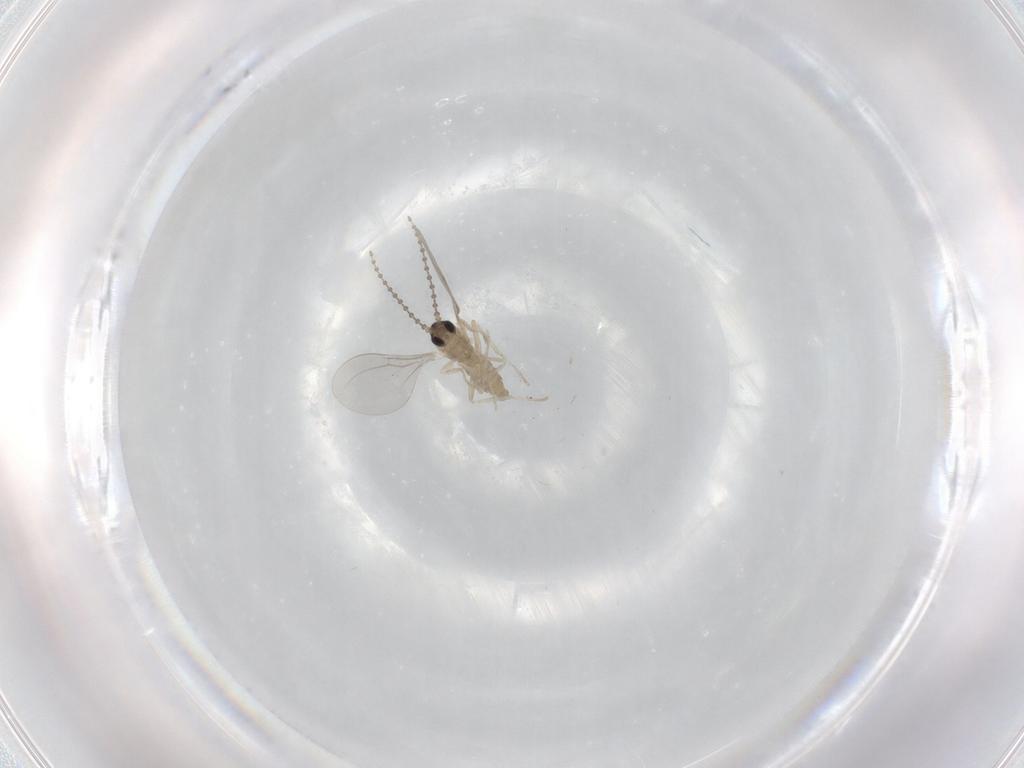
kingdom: Animalia
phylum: Arthropoda
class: Insecta
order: Diptera
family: Cecidomyiidae
